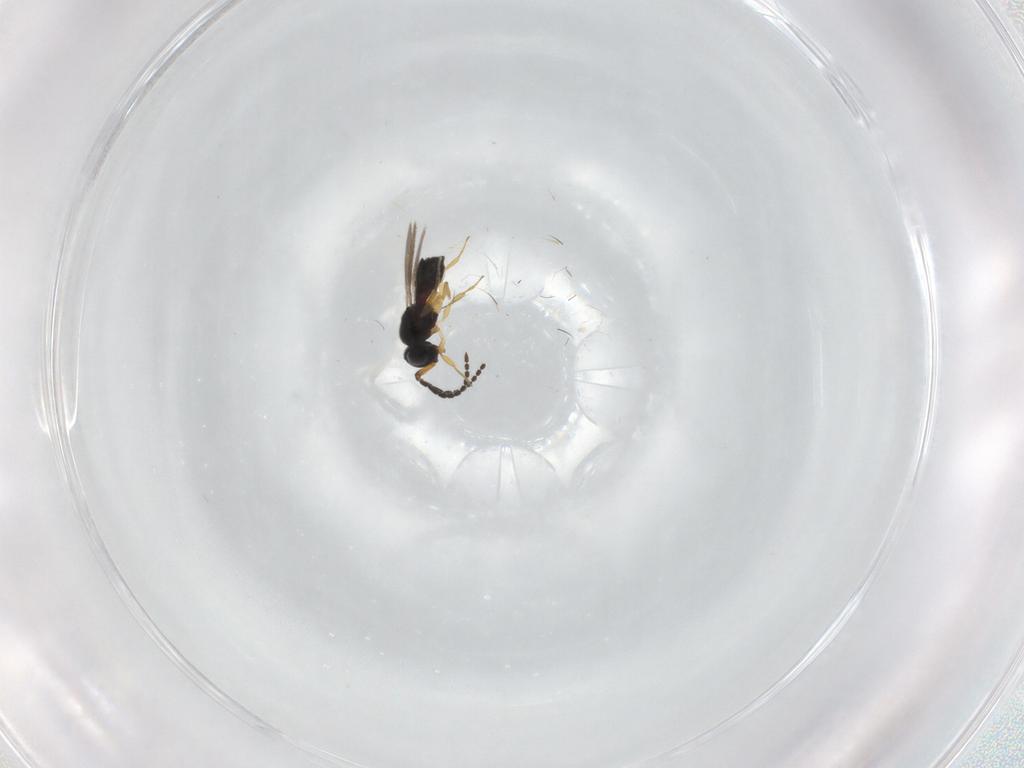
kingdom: Animalia
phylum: Arthropoda
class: Insecta
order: Hymenoptera
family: Scelionidae
